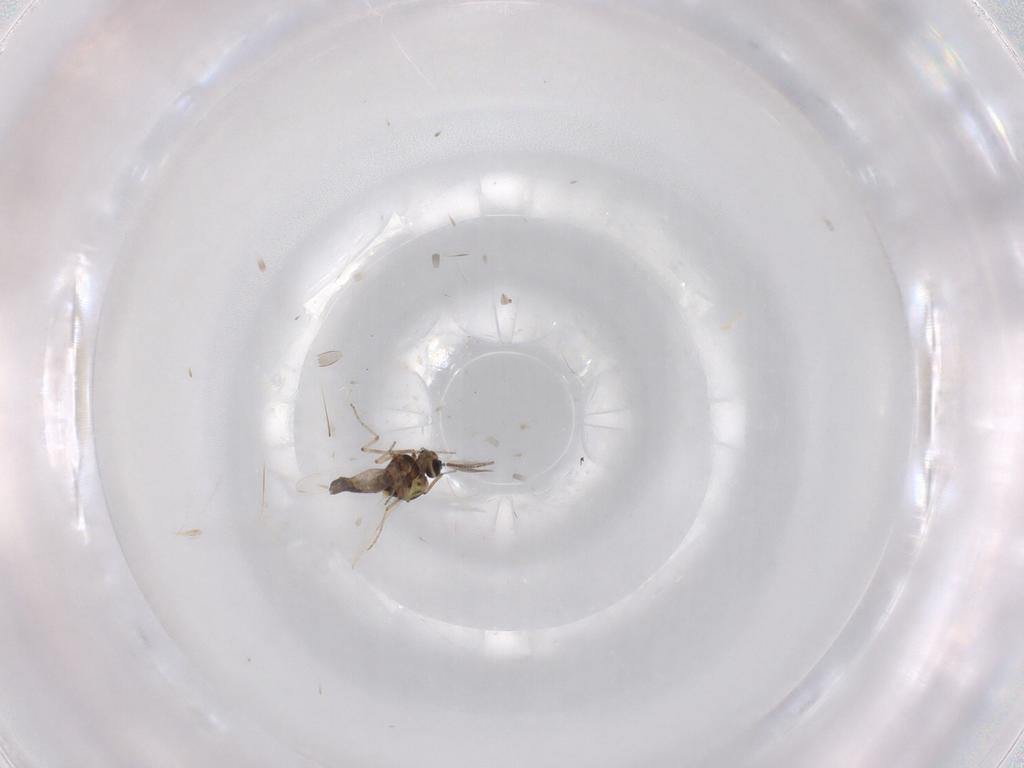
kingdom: Animalia
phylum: Arthropoda
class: Insecta
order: Diptera
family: Ceratopogonidae
